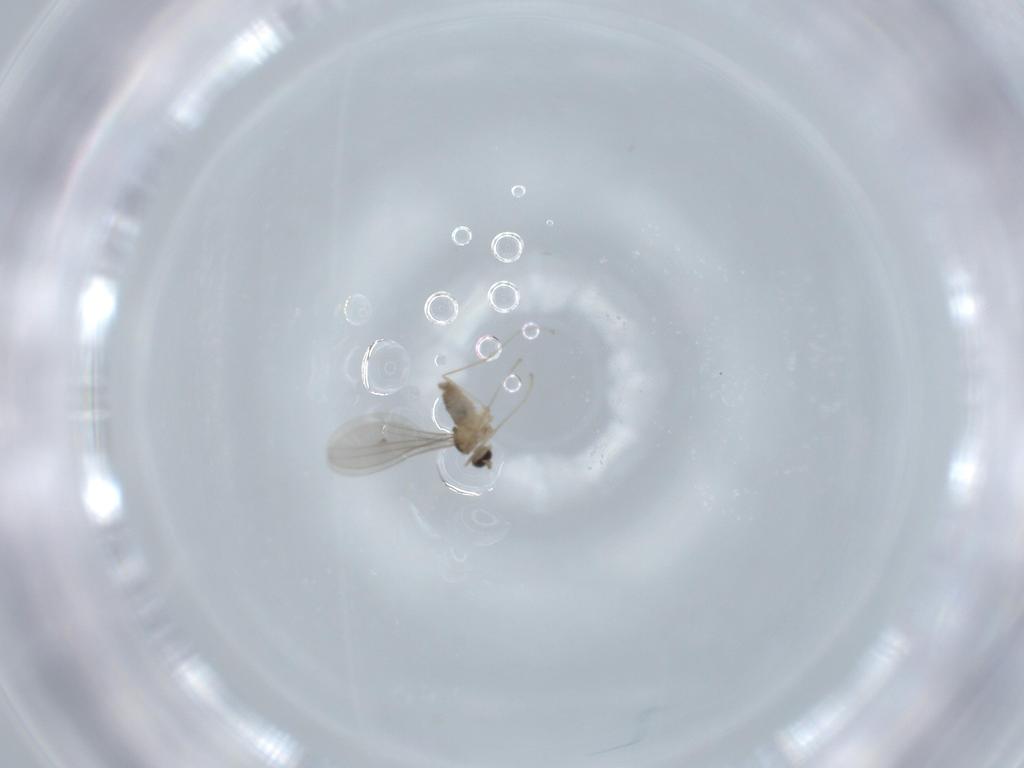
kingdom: Animalia
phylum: Arthropoda
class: Insecta
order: Diptera
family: Cecidomyiidae
